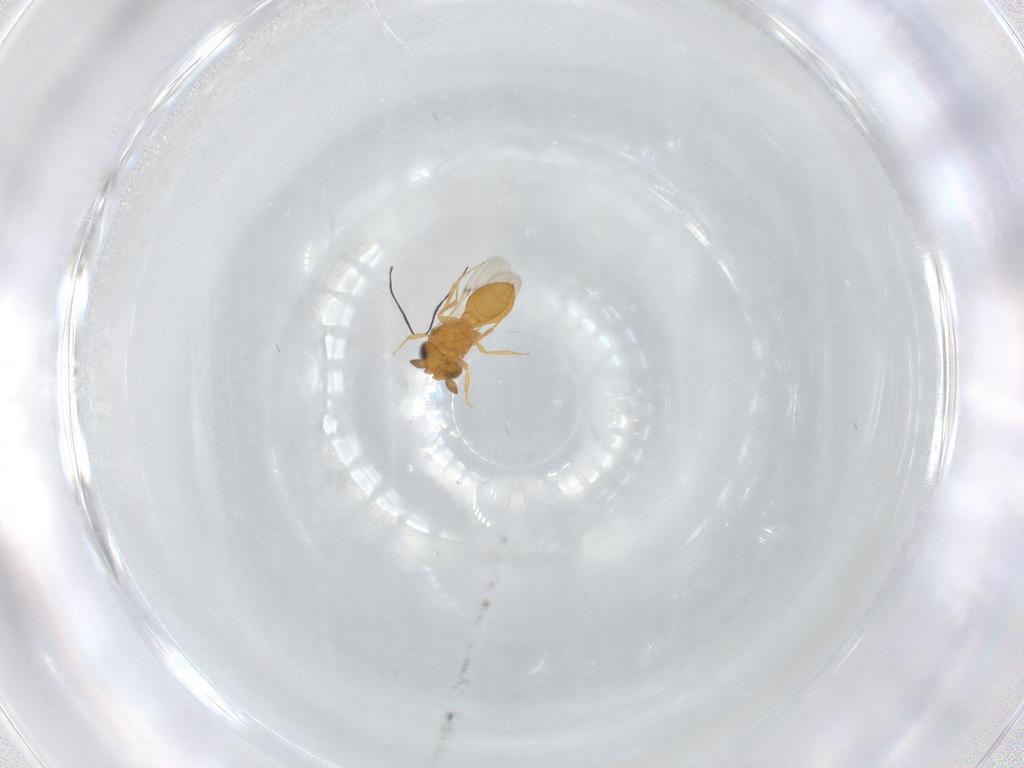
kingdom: Animalia
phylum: Arthropoda
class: Insecta
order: Hymenoptera
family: Scelionidae
